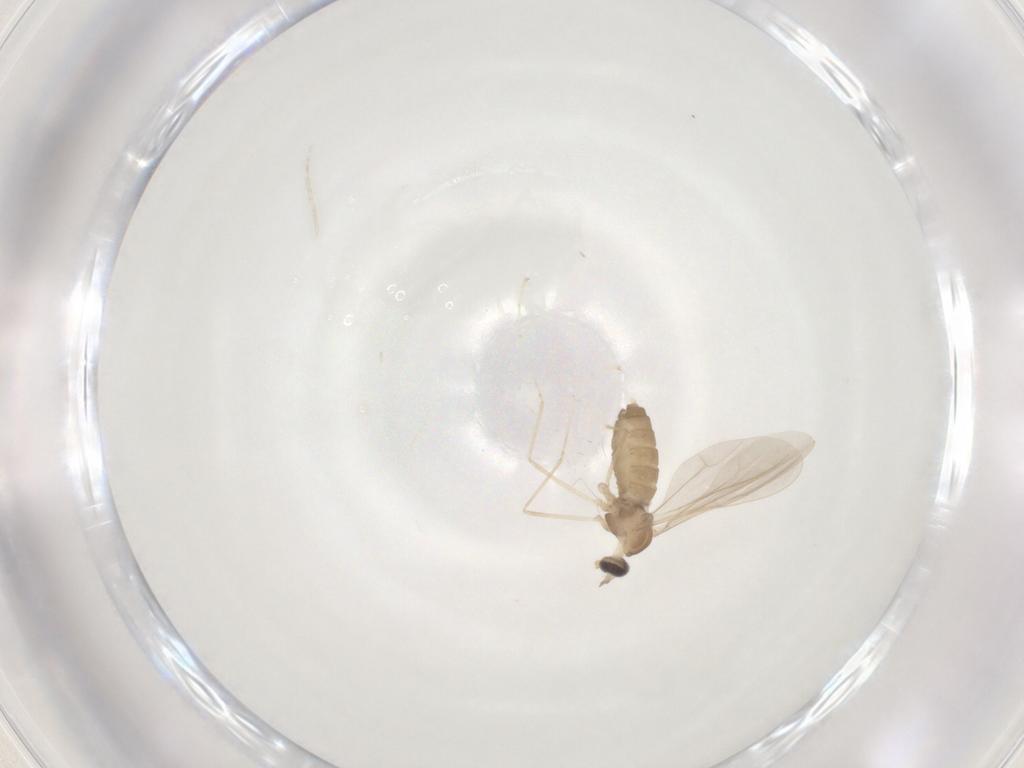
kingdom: Animalia
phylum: Arthropoda
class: Insecta
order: Diptera
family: Cecidomyiidae
